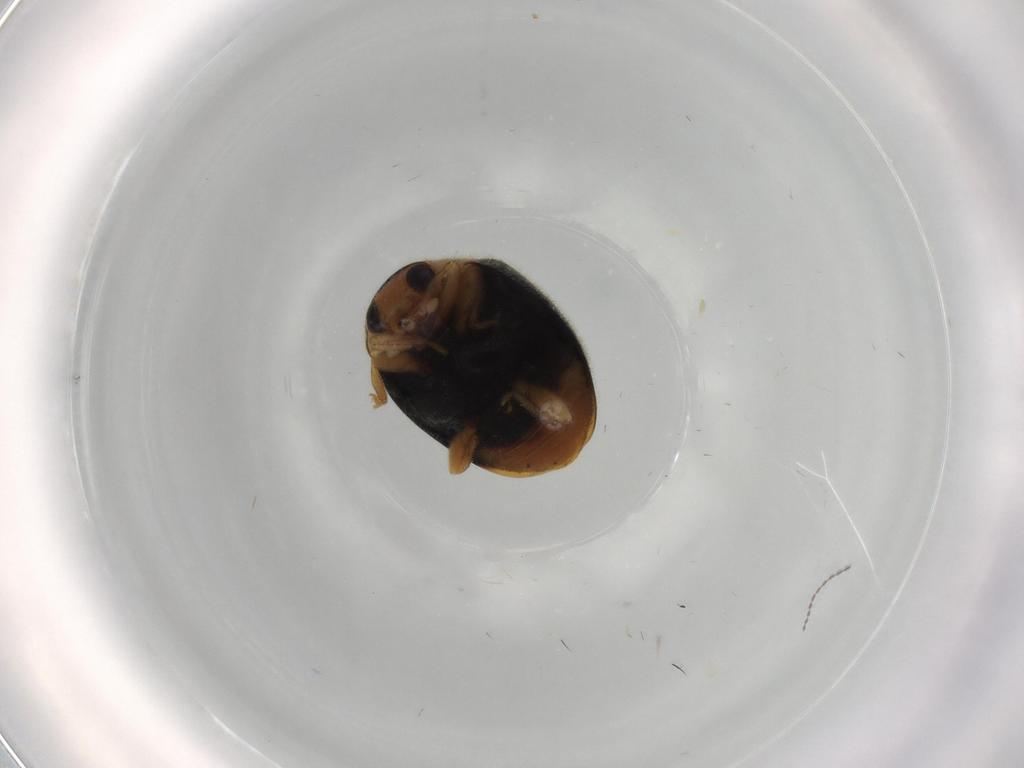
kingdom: Animalia
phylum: Arthropoda
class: Insecta
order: Coleoptera
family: Coccinellidae
